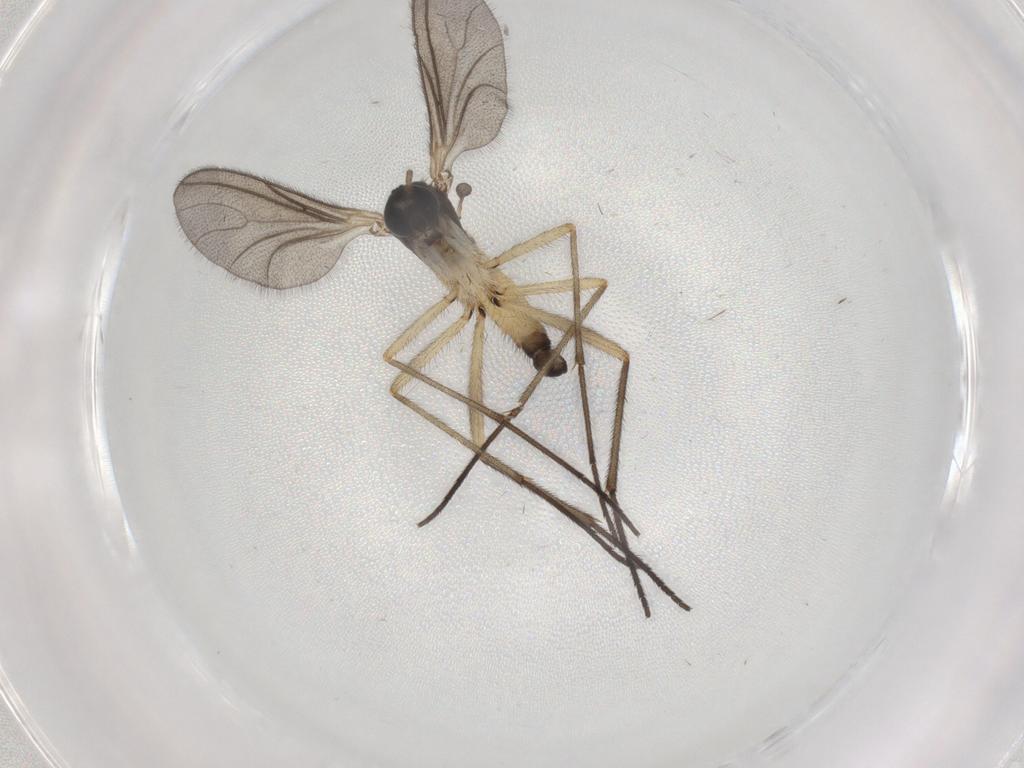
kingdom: Animalia
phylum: Arthropoda
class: Insecta
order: Diptera
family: Sciaridae
